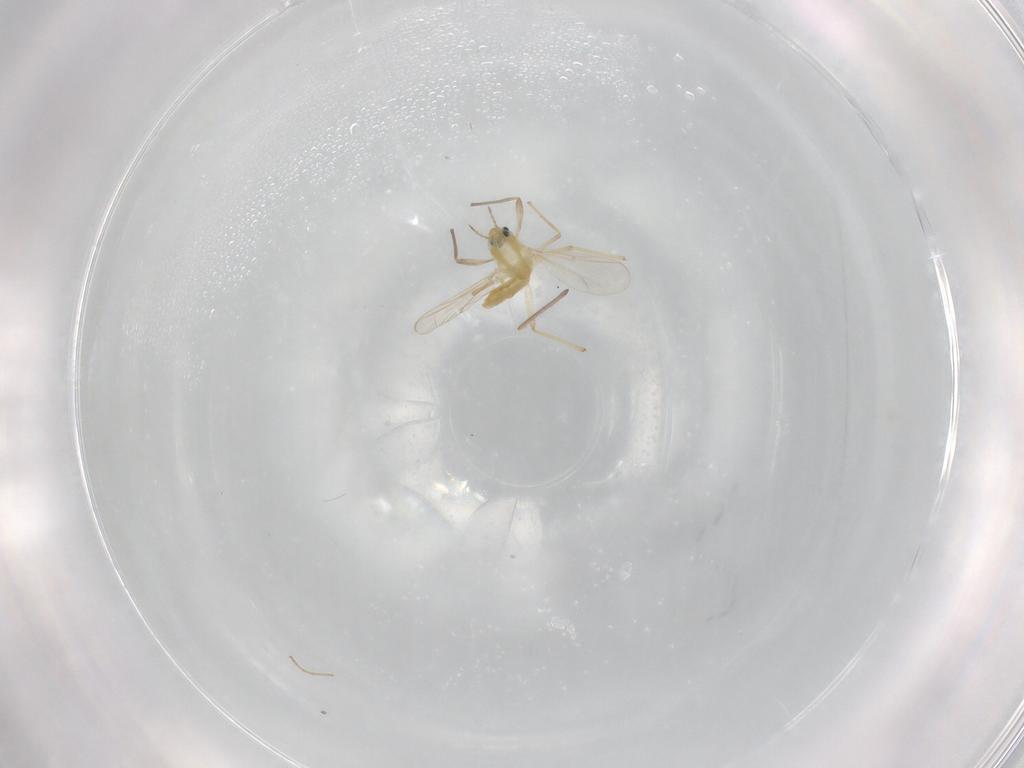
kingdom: Animalia
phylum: Arthropoda
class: Insecta
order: Diptera
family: Chironomidae
